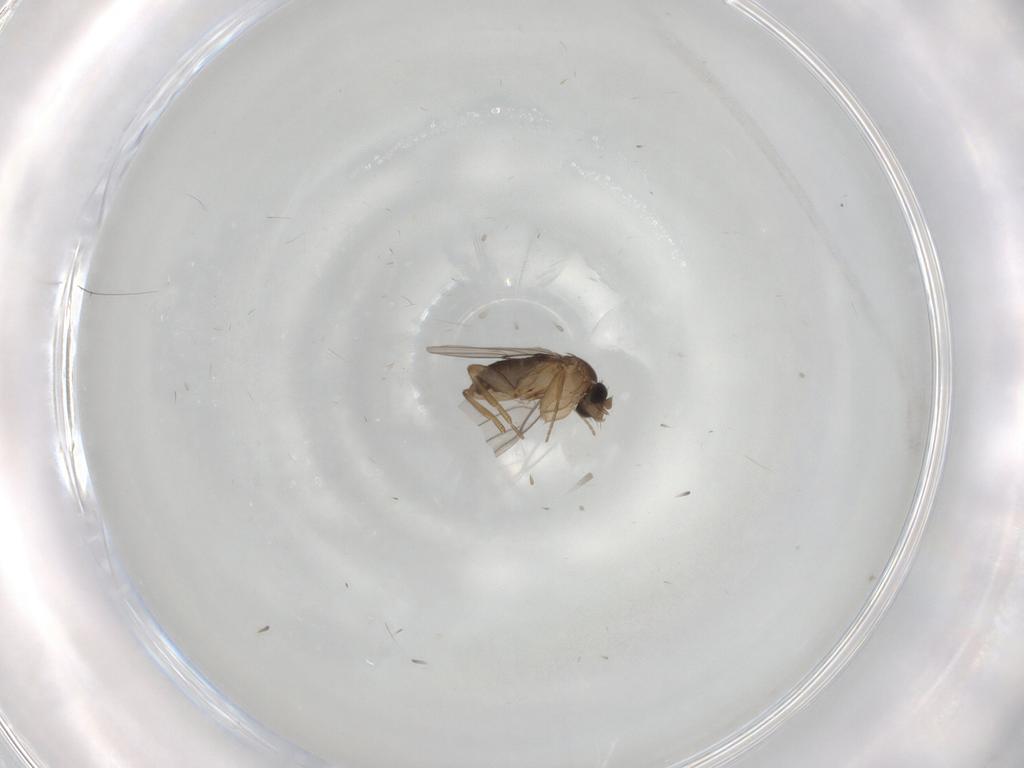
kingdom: Animalia
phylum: Arthropoda
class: Insecta
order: Diptera
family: Phoridae
